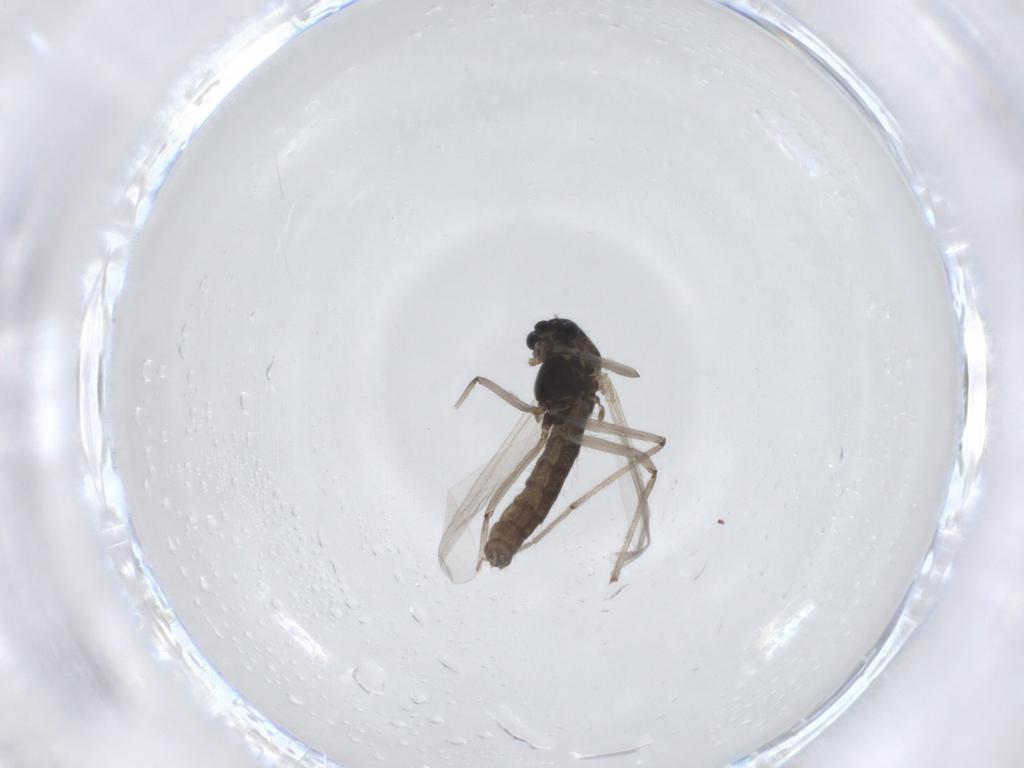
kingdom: Animalia
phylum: Arthropoda
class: Insecta
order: Diptera
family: Chironomidae
